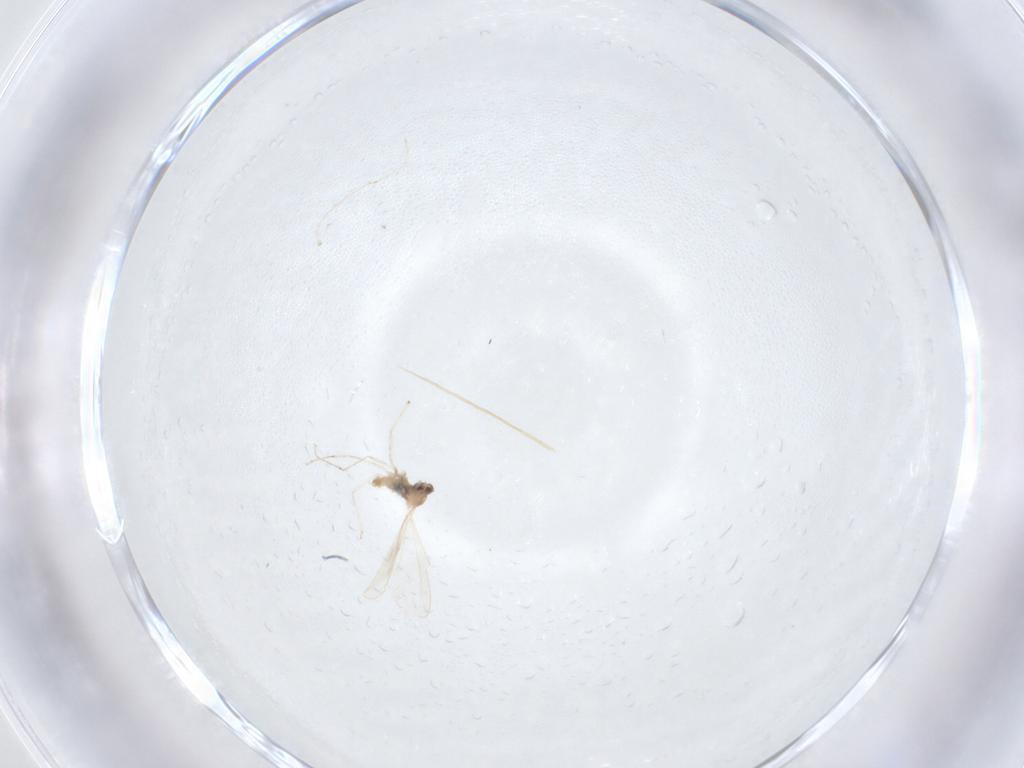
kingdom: Animalia
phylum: Arthropoda
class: Insecta
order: Diptera
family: Cecidomyiidae
